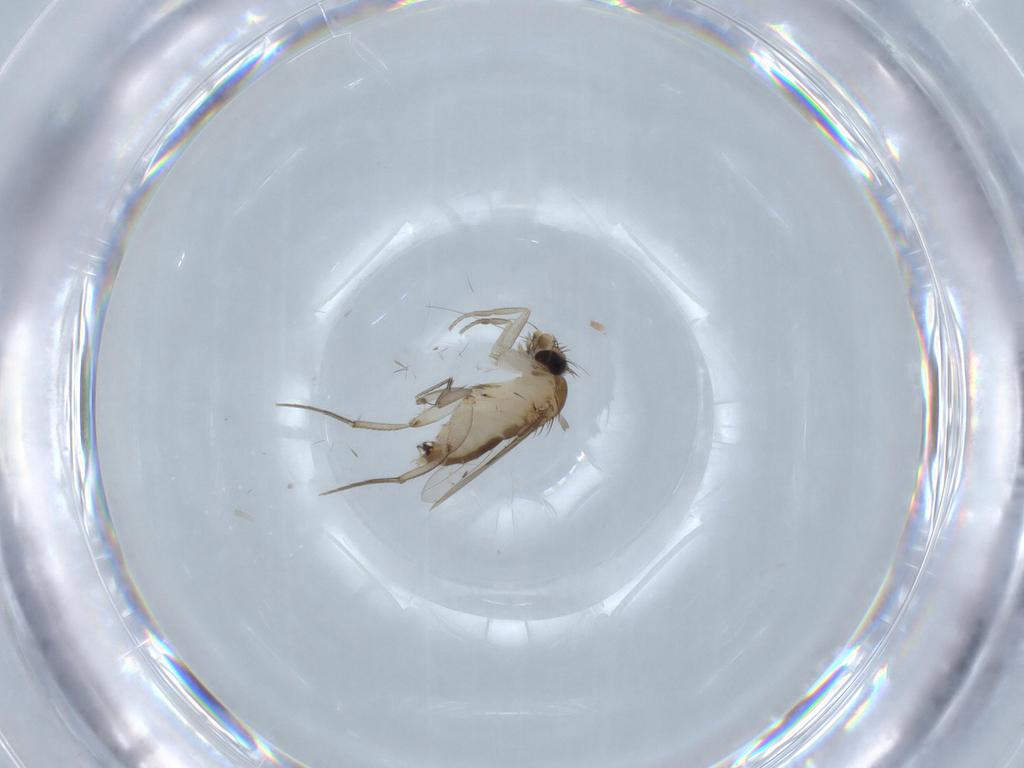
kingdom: Animalia
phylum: Arthropoda
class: Insecta
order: Diptera
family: Phoridae
